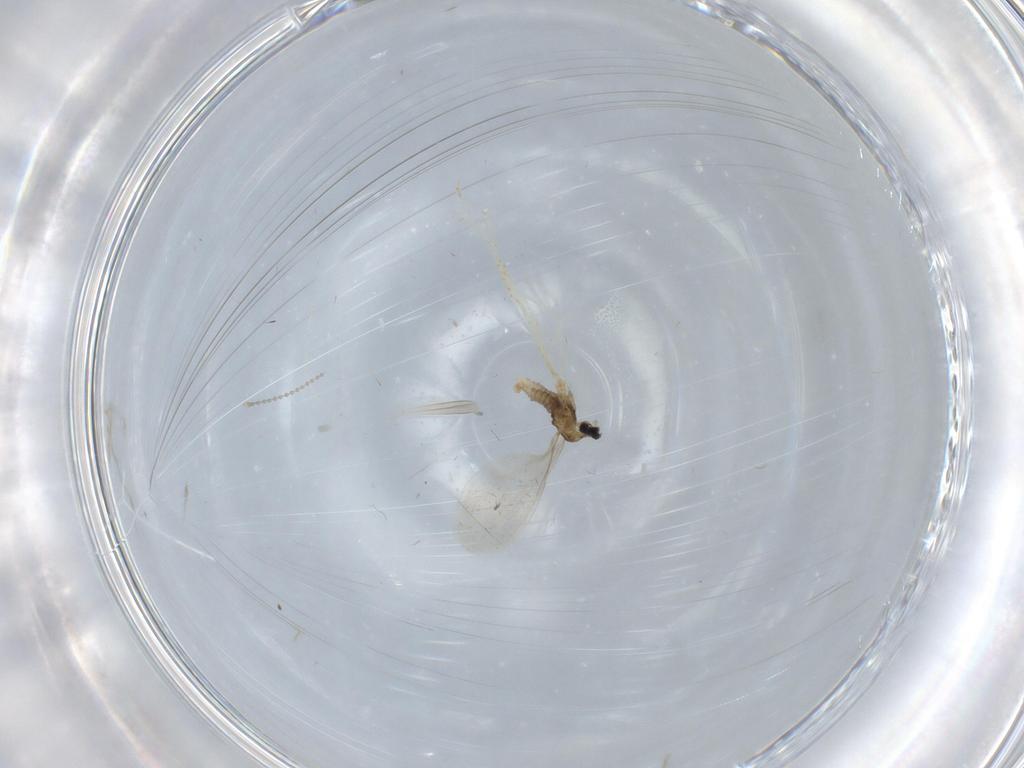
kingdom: Animalia
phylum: Arthropoda
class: Insecta
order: Diptera
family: Cecidomyiidae
